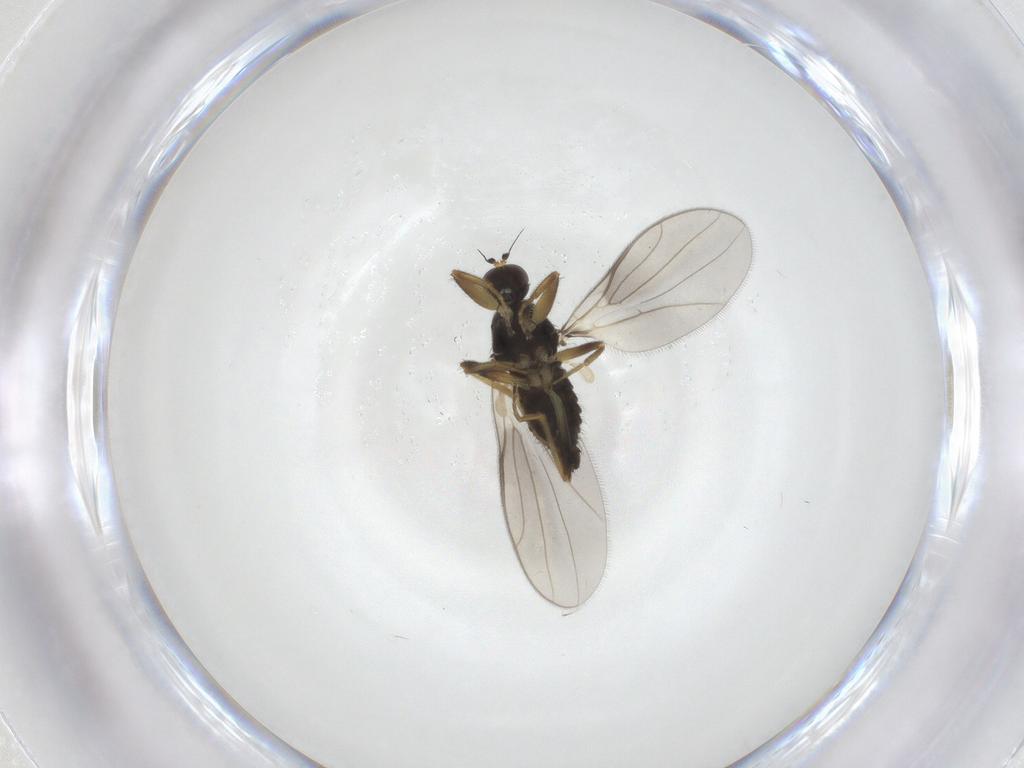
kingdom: Animalia
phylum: Arthropoda
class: Insecta
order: Diptera
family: Hybotidae
